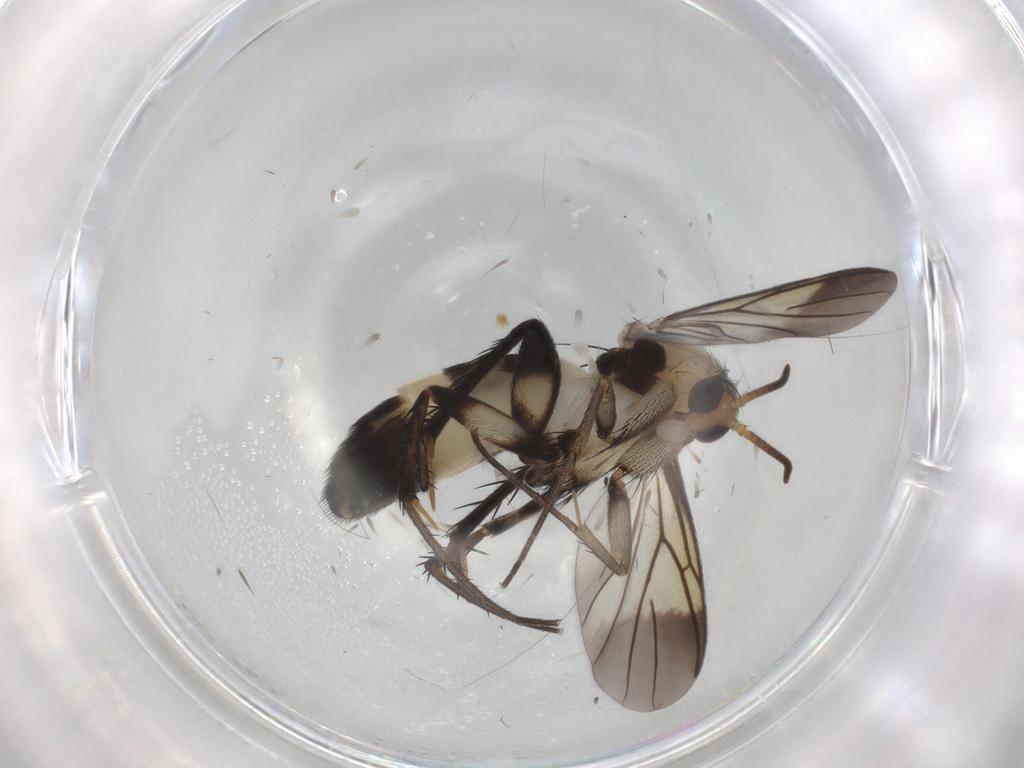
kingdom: Animalia
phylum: Arthropoda
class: Insecta
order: Diptera
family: Mycetophilidae
